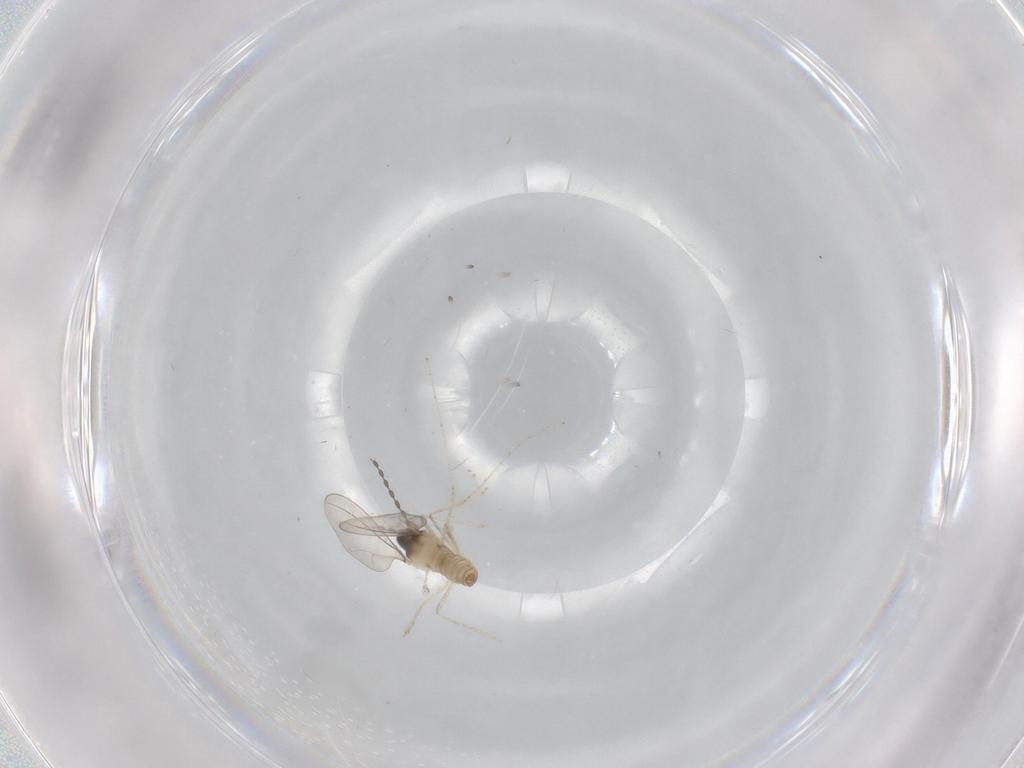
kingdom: Animalia
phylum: Arthropoda
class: Insecta
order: Diptera
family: Cecidomyiidae
